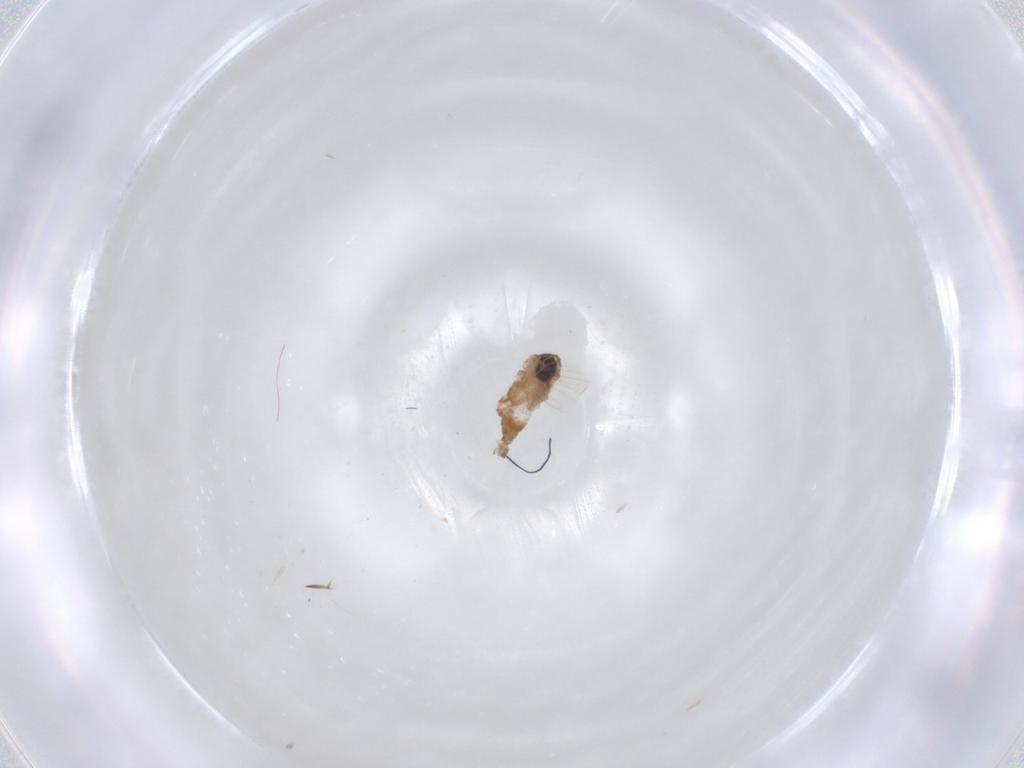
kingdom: Animalia
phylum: Arthropoda
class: Insecta
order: Diptera
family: Psychodidae
